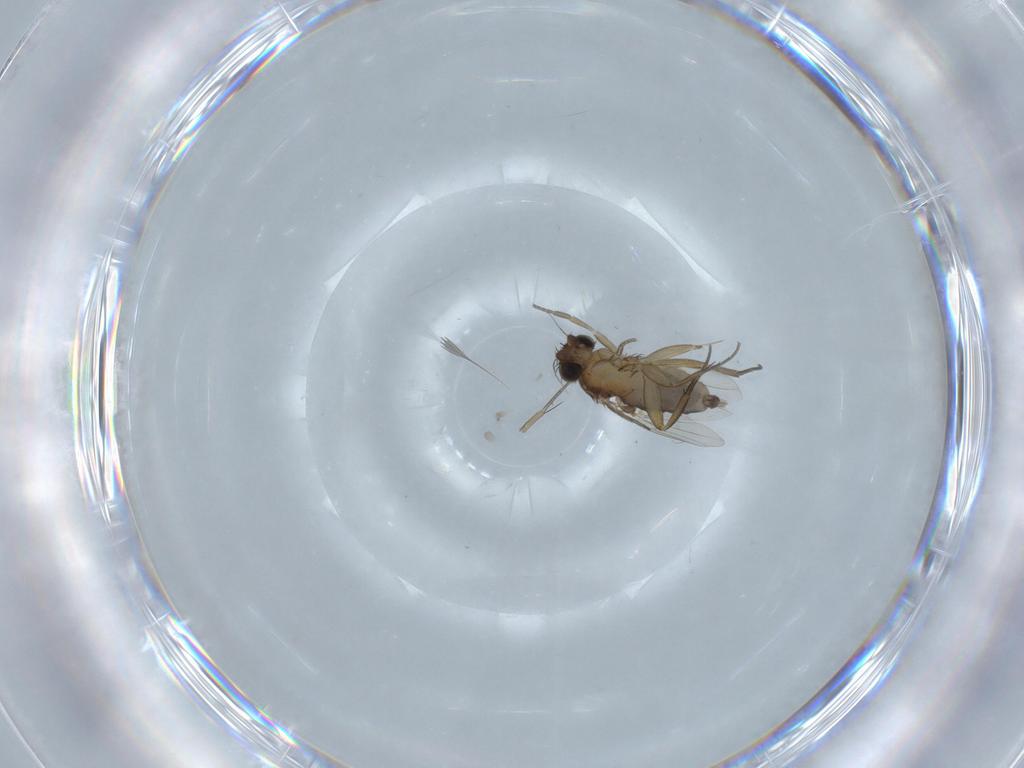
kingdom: Animalia
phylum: Arthropoda
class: Insecta
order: Diptera
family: Phoridae
